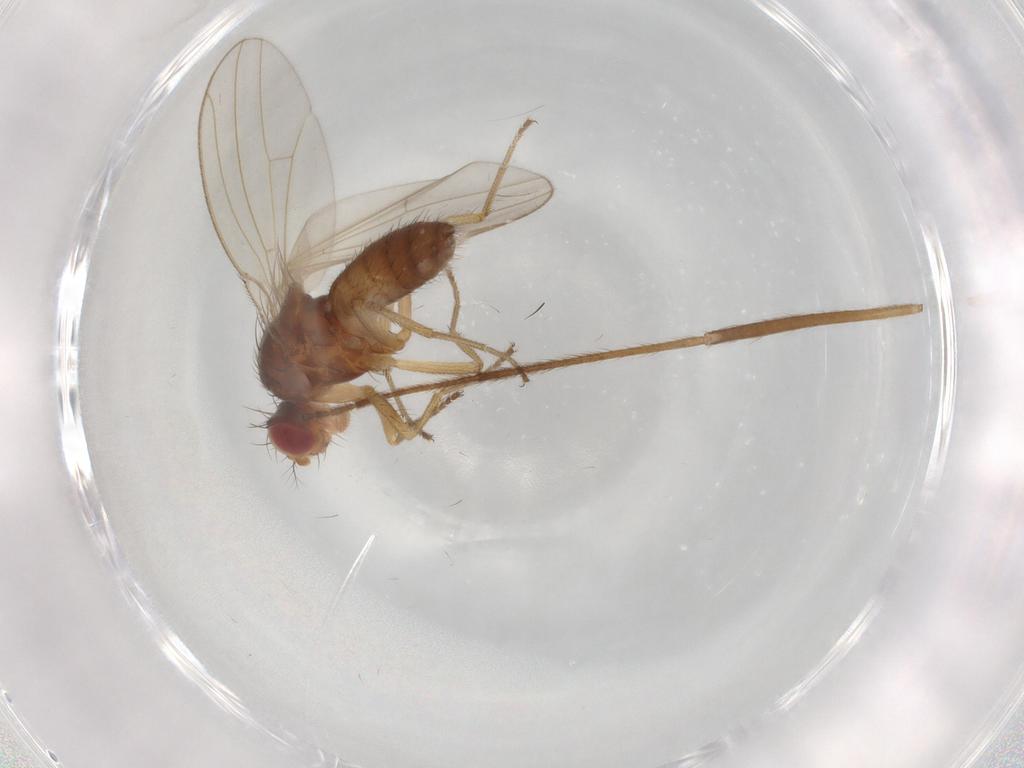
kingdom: Animalia
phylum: Arthropoda
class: Insecta
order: Diptera
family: Drosophilidae
